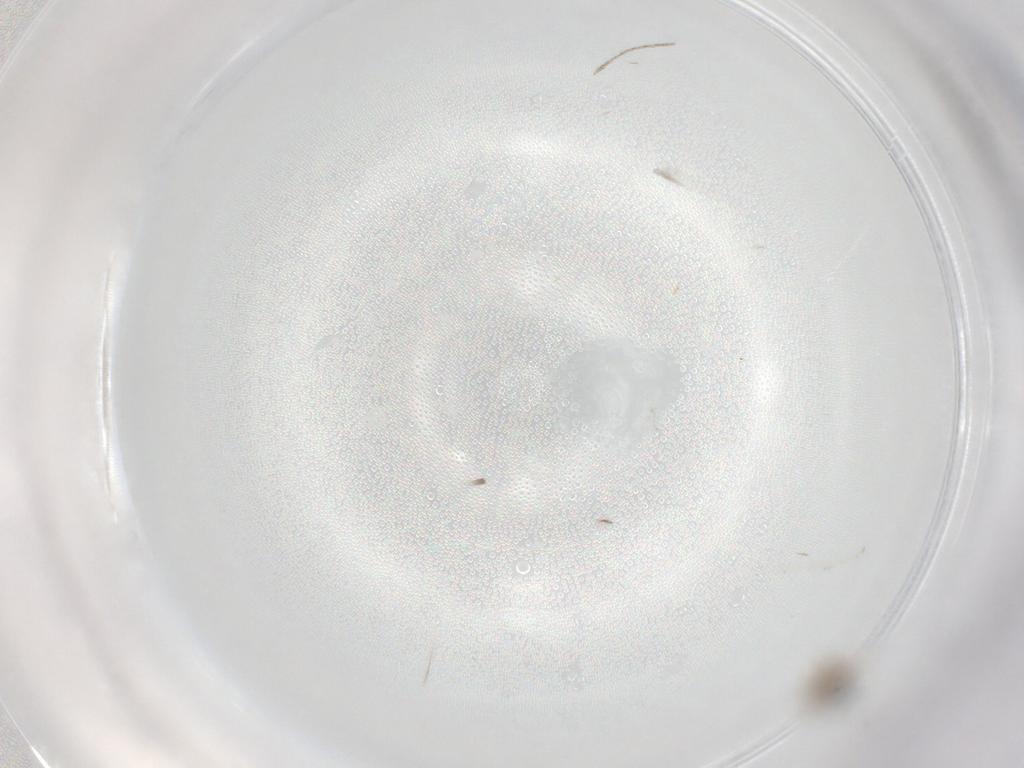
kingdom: Animalia
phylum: Arthropoda
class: Insecta
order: Diptera
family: Cecidomyiidae
